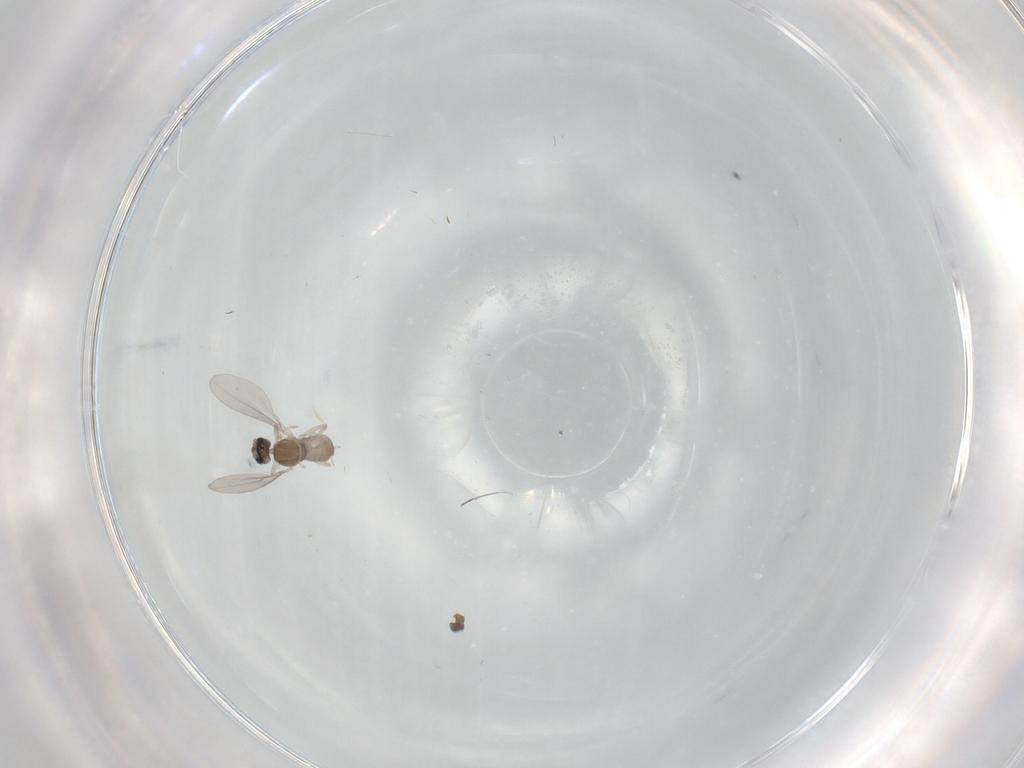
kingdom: Animalia
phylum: Arthropoda
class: Insecta
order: Diptera
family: Cecidomyiidae
